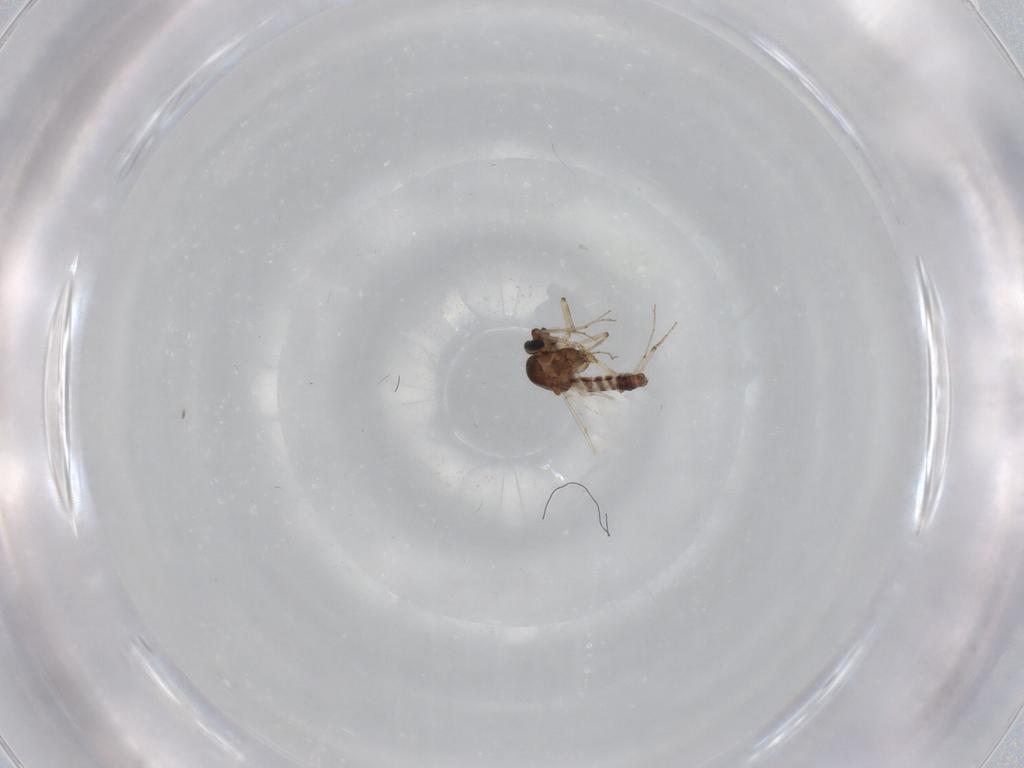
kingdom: Animalia
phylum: Arthropoda
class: Insecta
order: Diptera
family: Ceratopogonidae
